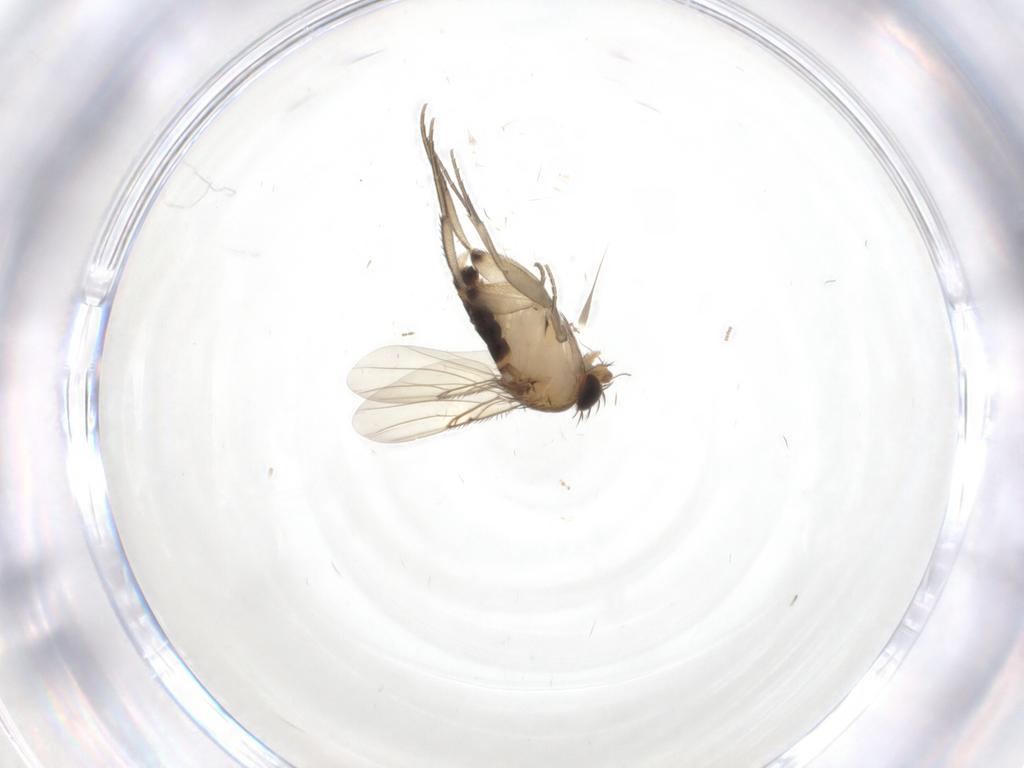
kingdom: Animalia
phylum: Arthropoda
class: Insecta
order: Diptera
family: Phoridae
